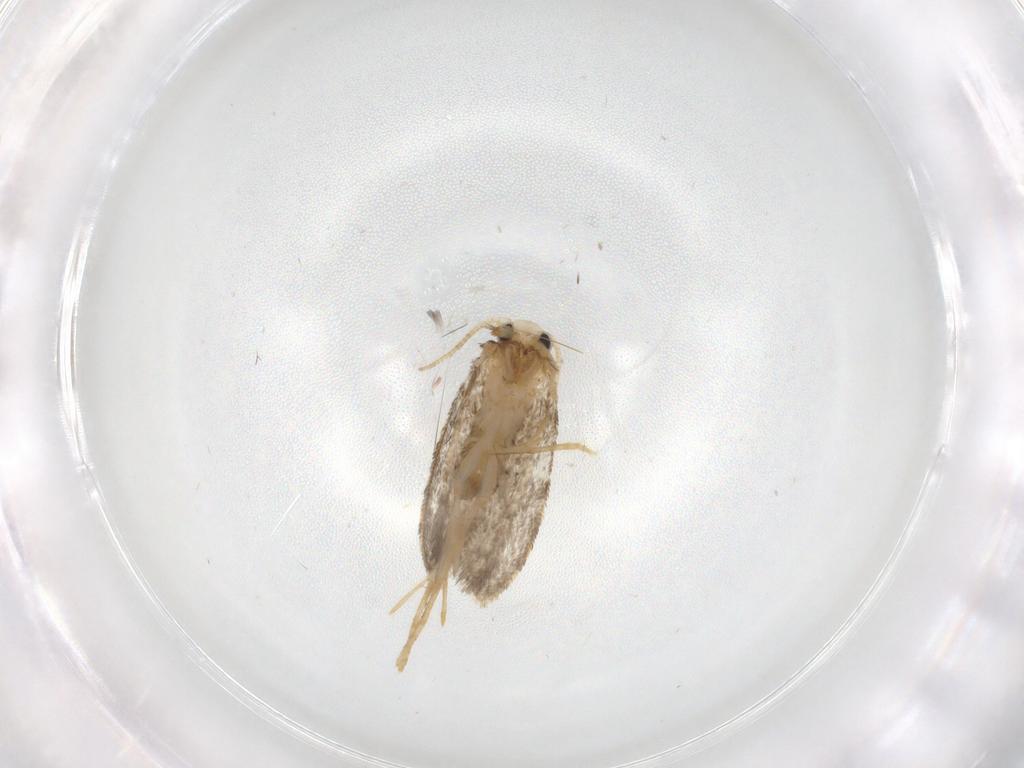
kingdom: Animalia
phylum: Arthropoda
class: Insecta
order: Lepidoptera
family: Psychidae
